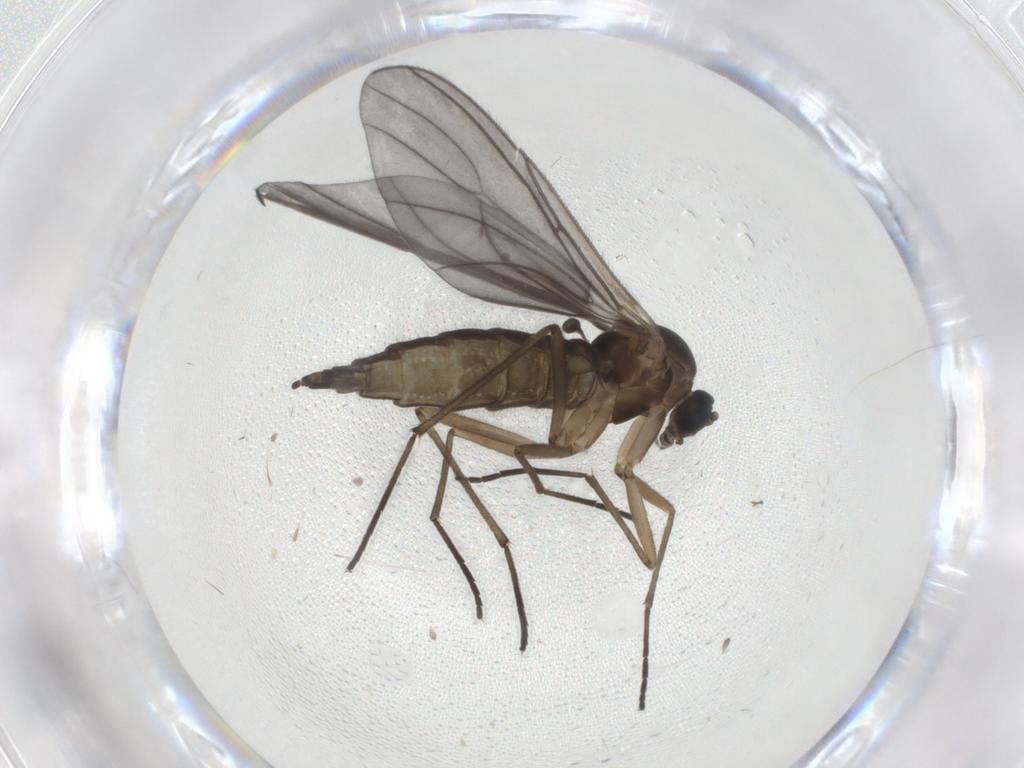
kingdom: Animalia
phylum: Arthropoda
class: Insecta
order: Diptera
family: Sciaridae
